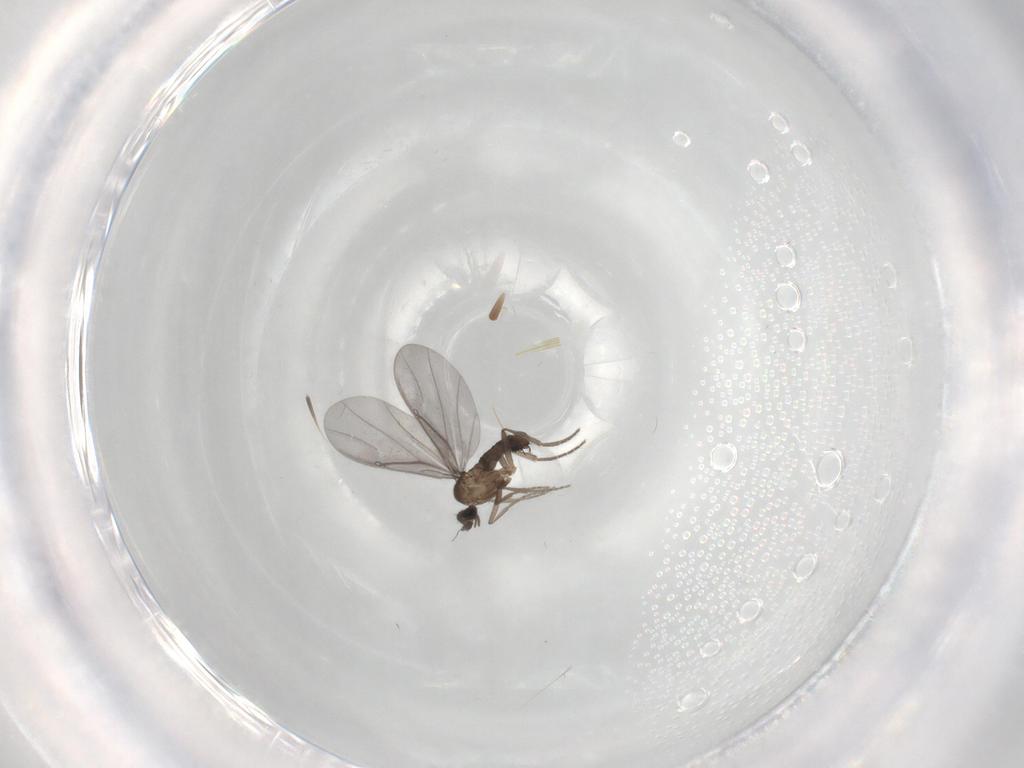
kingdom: Animalia
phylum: Arthropoda
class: Insecta
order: Diptera
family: Phoridae
